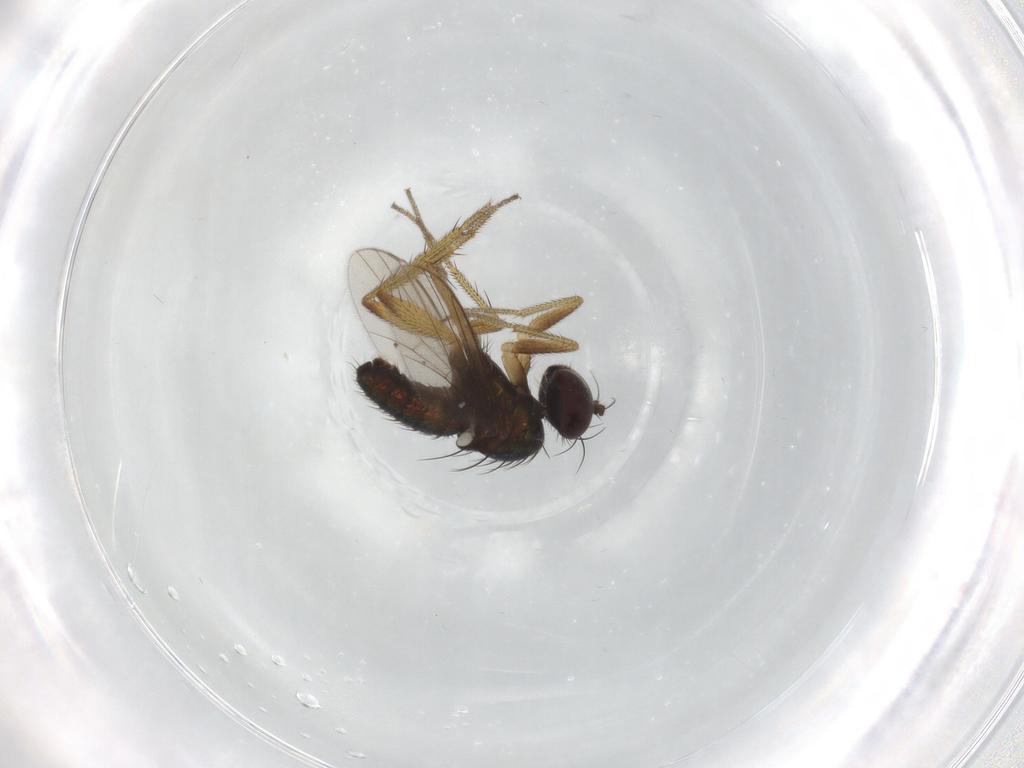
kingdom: Animalia
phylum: Arthropoda
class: Insecta
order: Diptera
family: Dolichopodidae
